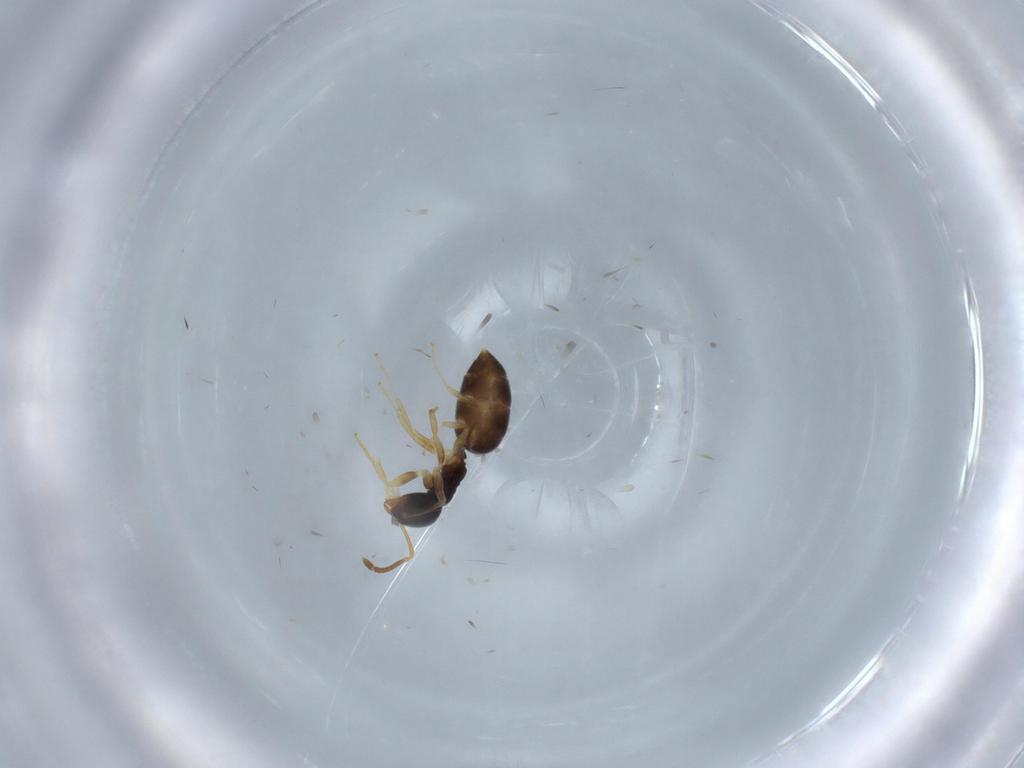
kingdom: Animalia
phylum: Arthropoda
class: Insecta
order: Hymenoptera
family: Formicidae
